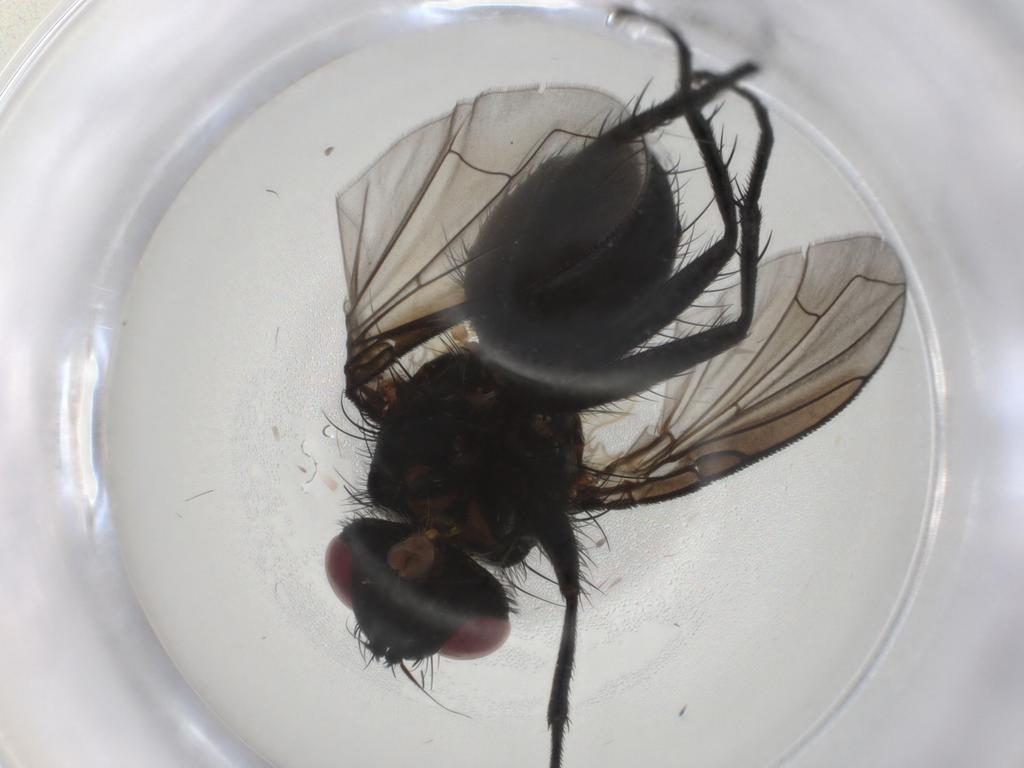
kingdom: Animalia
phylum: Arthropoda
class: Insecta
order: Diptera
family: Tachinidae
